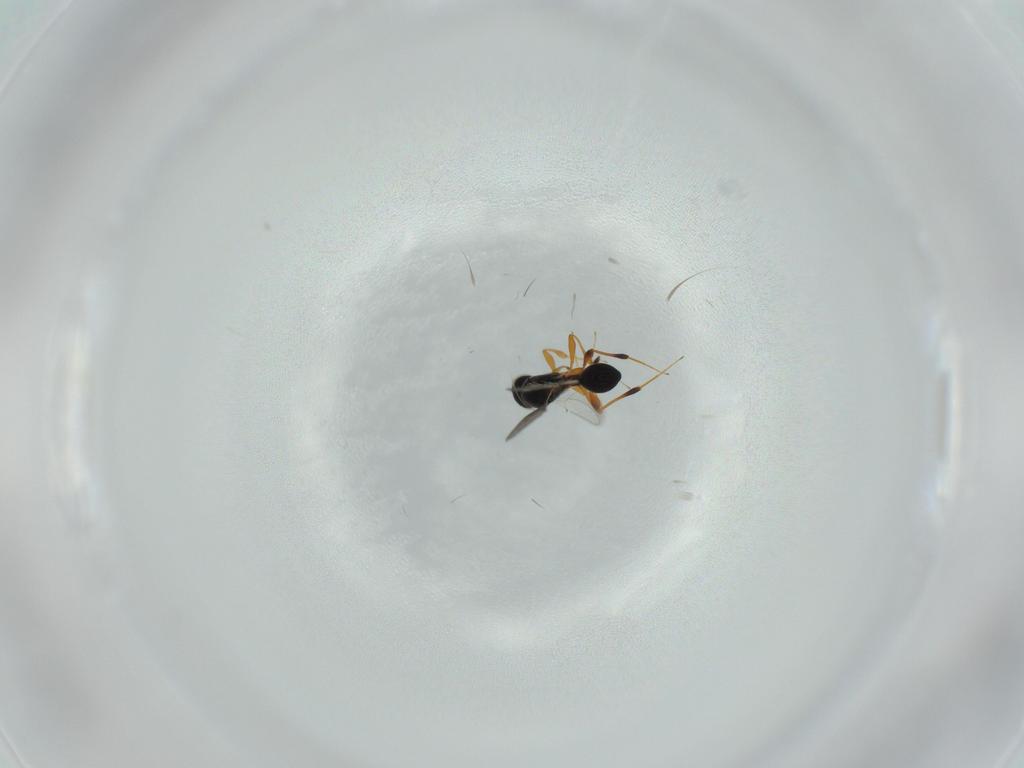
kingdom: Animalia
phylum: Arthropoda
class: Insecta
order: Hymenoptera
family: Platygastridae
